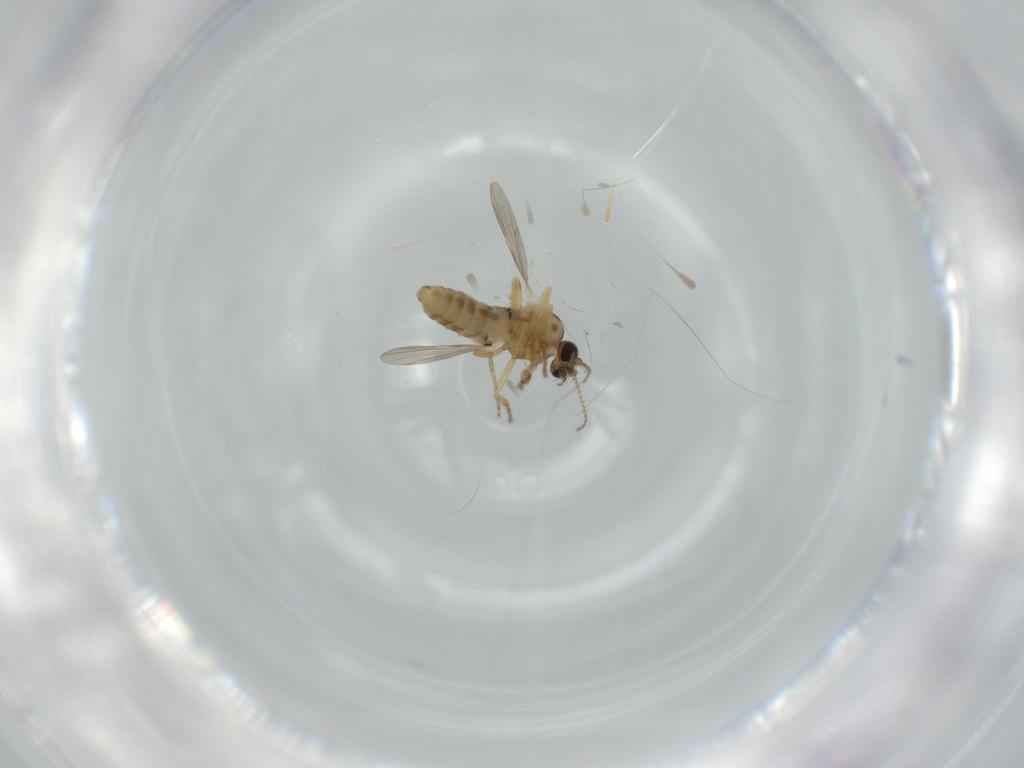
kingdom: Animalia
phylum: Arthropoda
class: Insecta
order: Diptera
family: Ceratopogonidae
